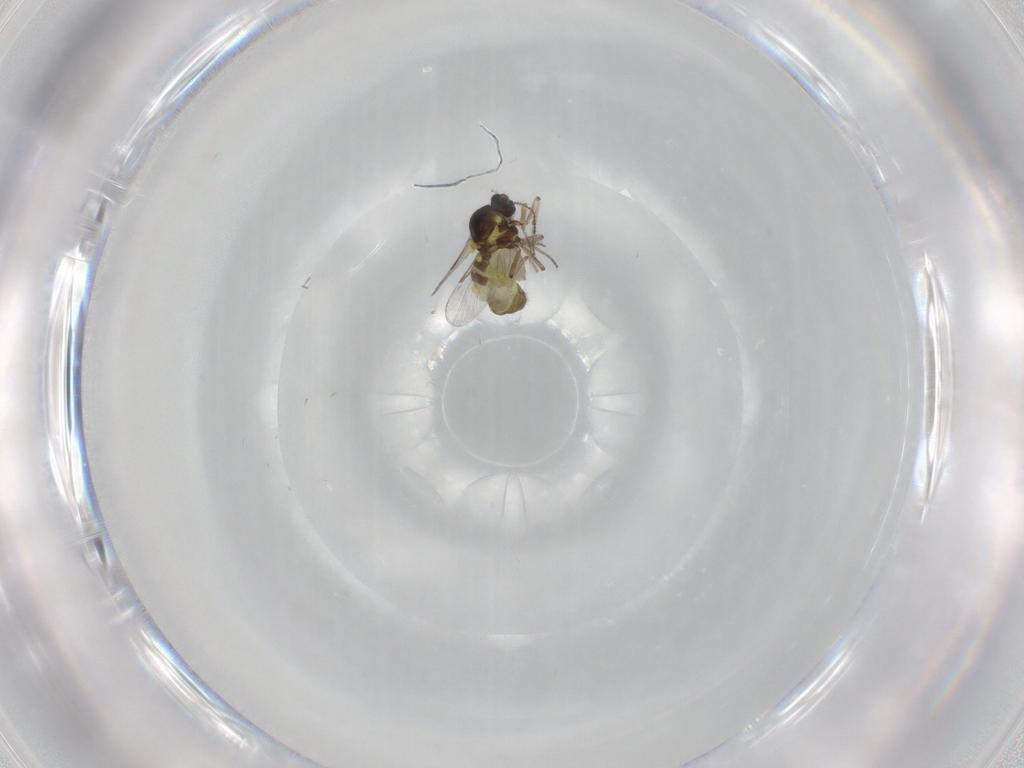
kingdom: Animalia
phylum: Arthropoda
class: Insecta
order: Diptera
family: Ceratopogonidae
